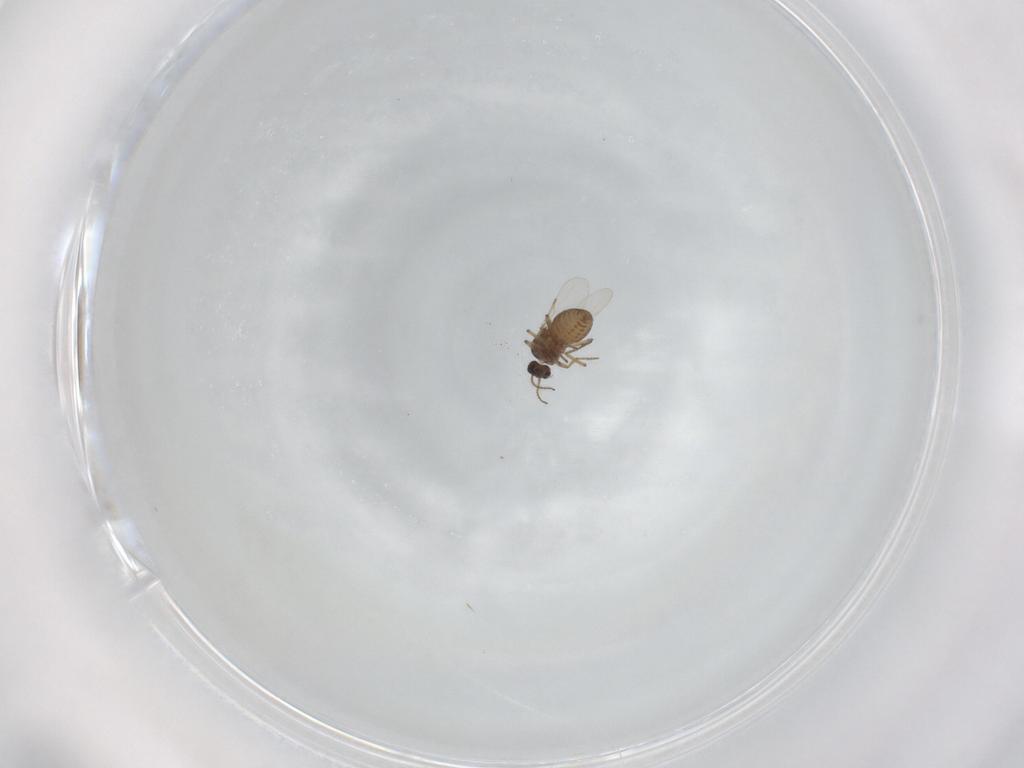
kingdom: Animalia
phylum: Arthropoda
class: Insecta
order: Diptera
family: Ceratopogonidae
